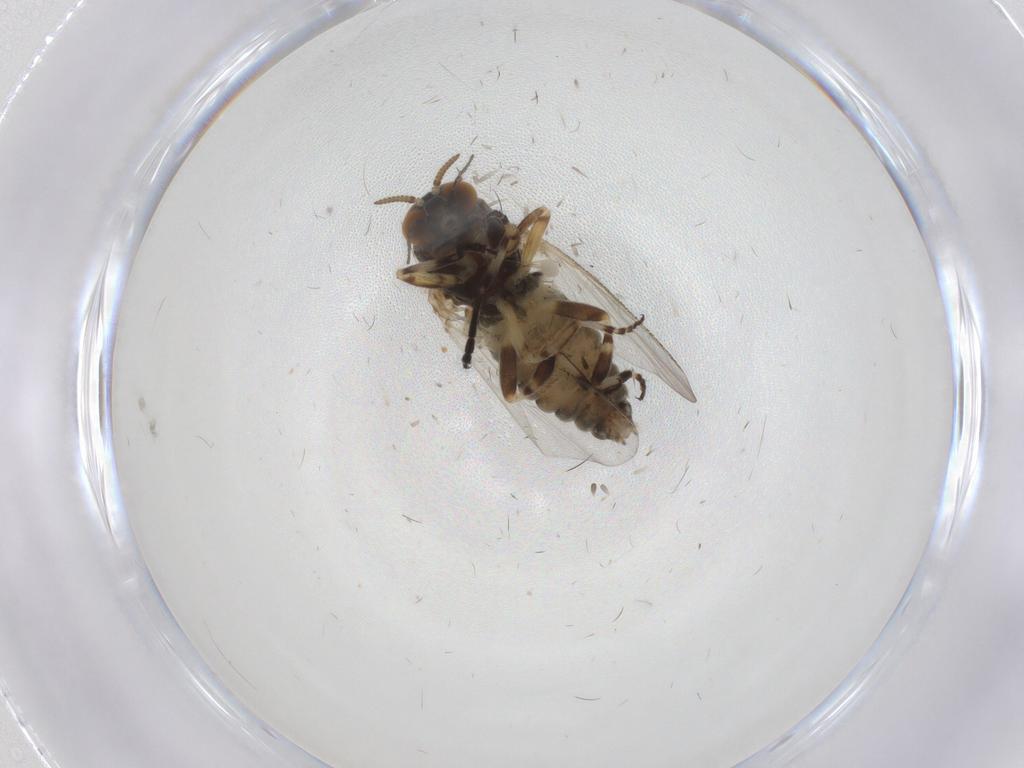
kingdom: Animalia
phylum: Arthropoda
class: Insecta
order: Diptera
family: Simuliidae
